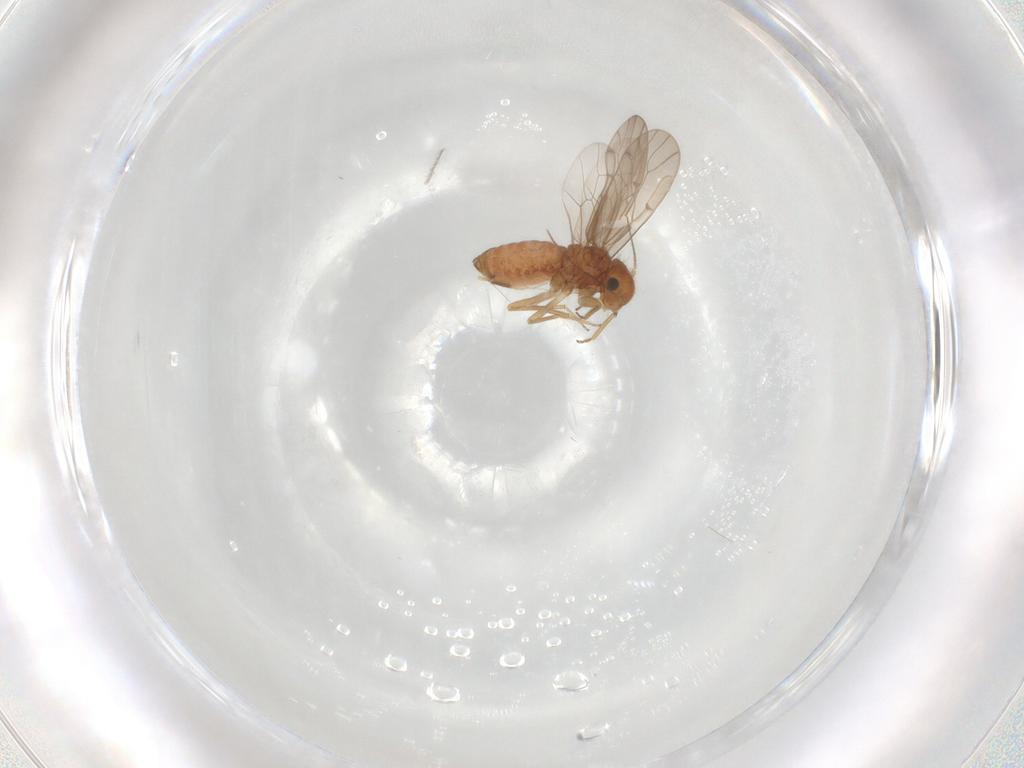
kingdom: Animalia
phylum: Arthropoda
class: Insecta
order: Psocodea
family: Ectopsocidae
